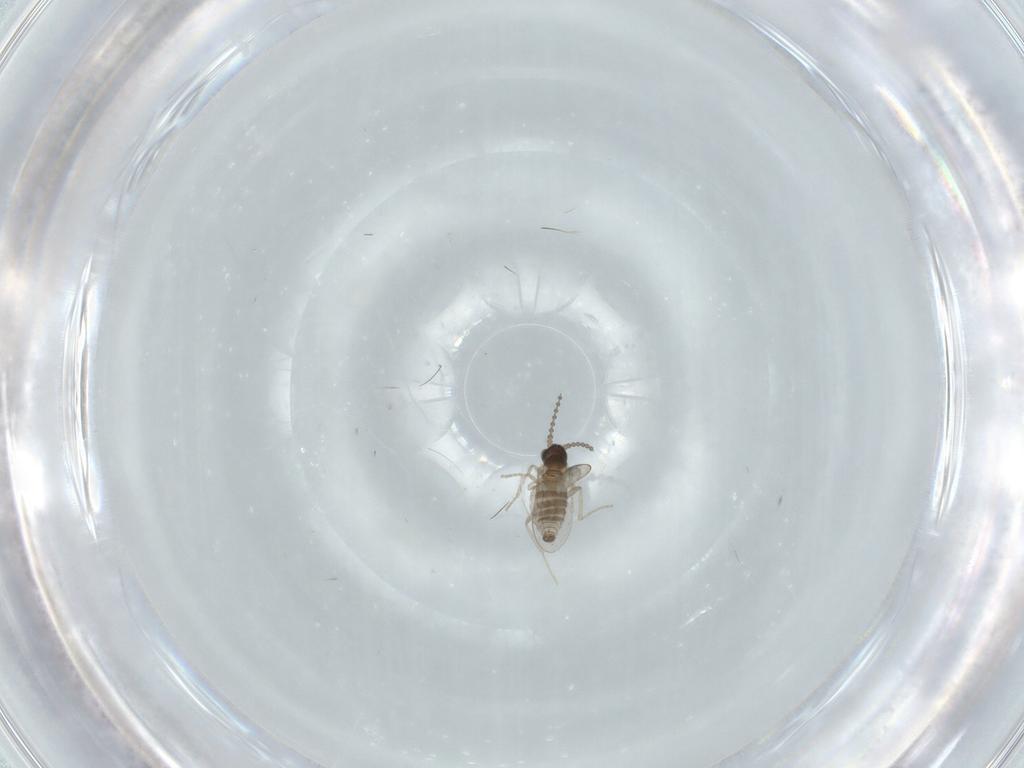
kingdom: Animalia
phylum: Arthropoda
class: Insecta
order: Diptera
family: Cecidomyiidae
